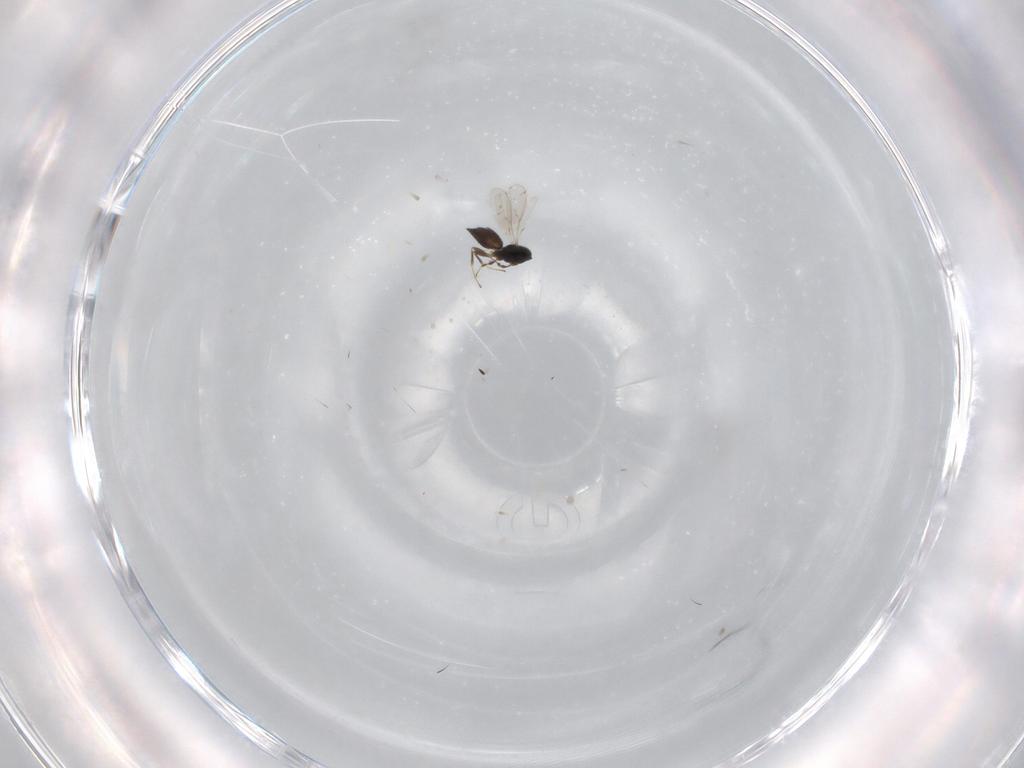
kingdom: Animalia
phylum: Arthropoda
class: Insecta
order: Hymenoptera
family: Scelionidae
